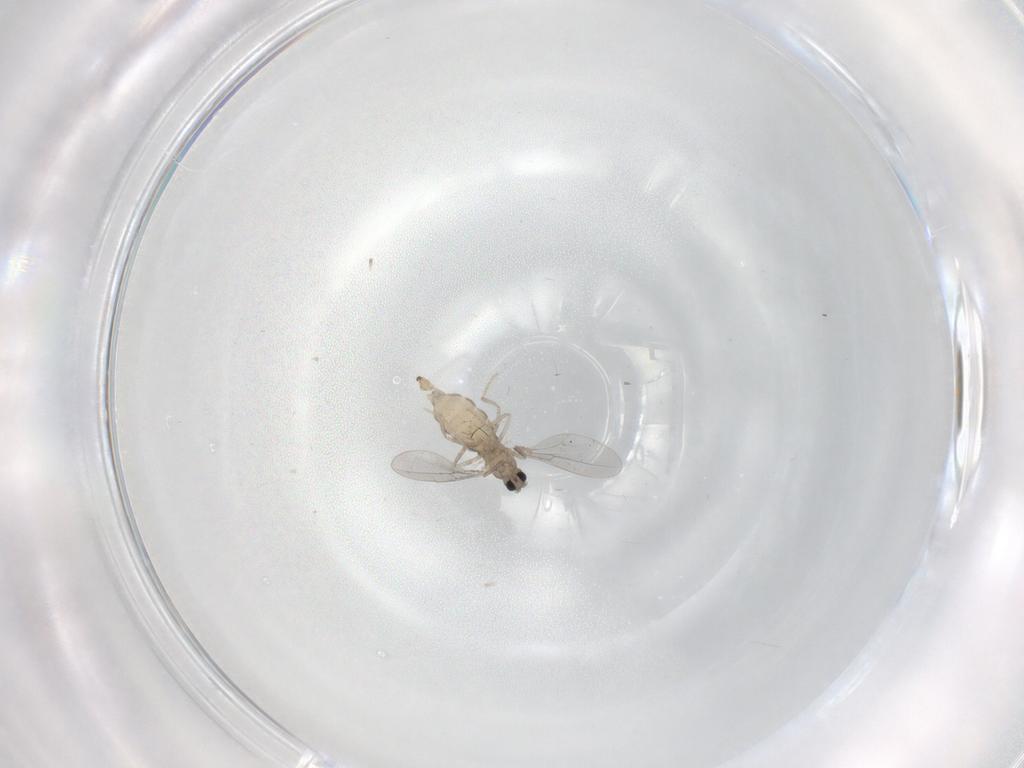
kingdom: Animalia
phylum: Arthropoda
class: Insecta
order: Diptera
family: Cecidomyiidae
